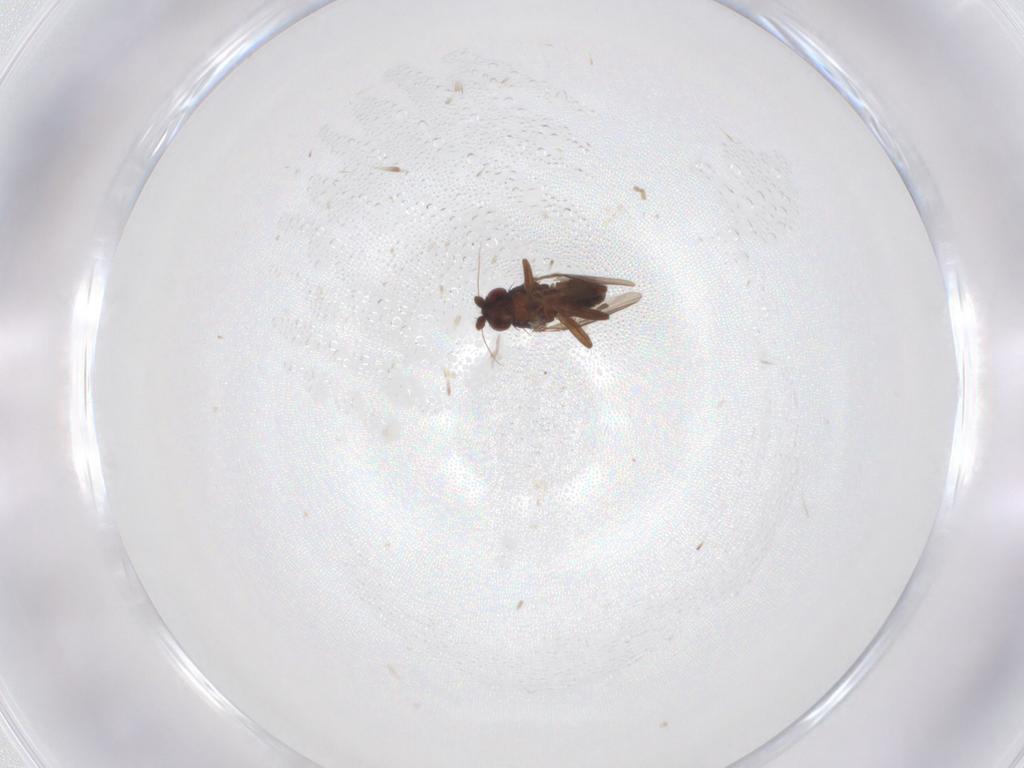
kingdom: Animalia
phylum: Arthropoda
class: Insecta
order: Diptera
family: Sphaeroceridae
